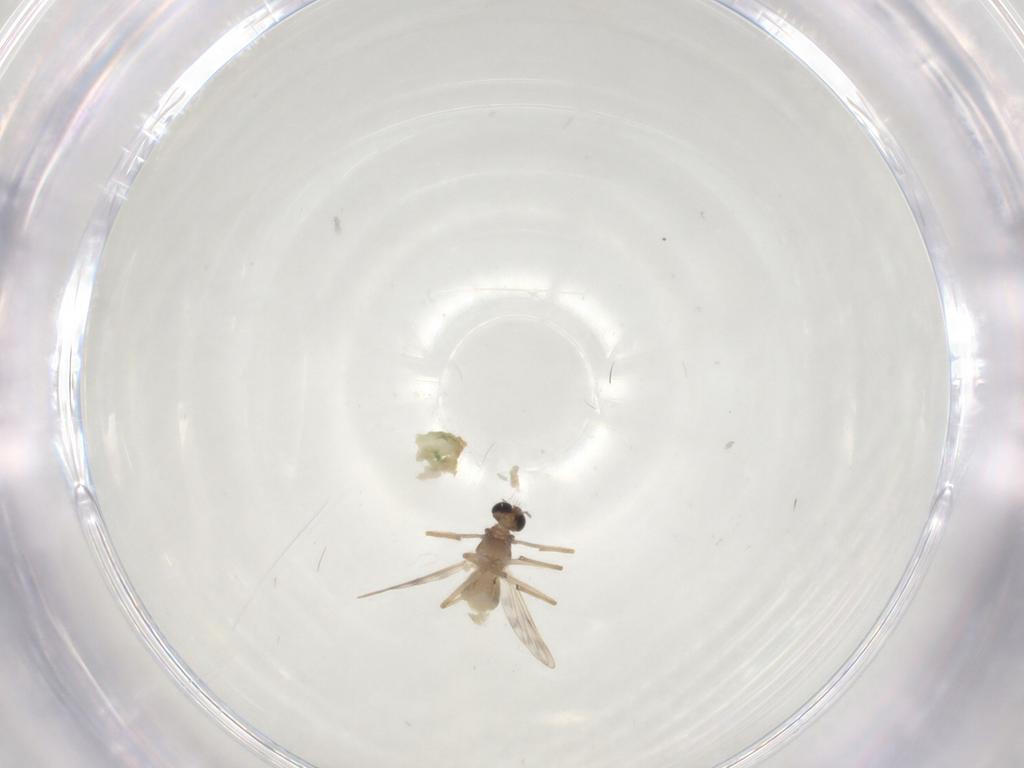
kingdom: Animalia
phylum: Arthropoda
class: Insecta
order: Diptera
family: Chironomidae
